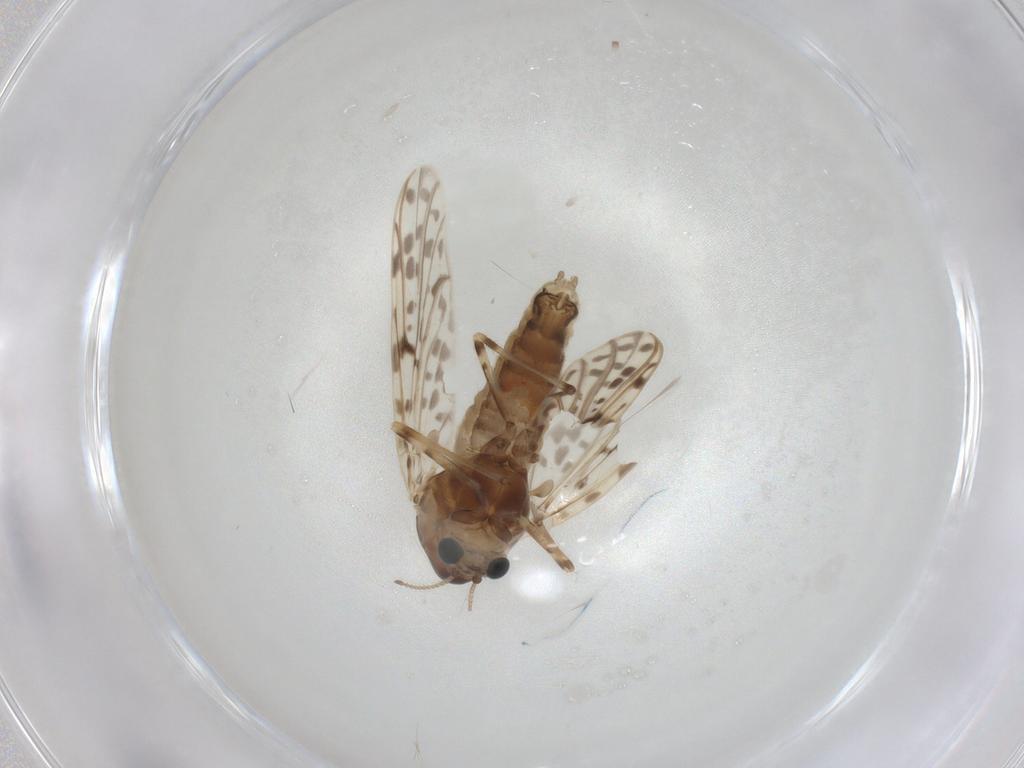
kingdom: Animalia
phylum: Arthropoda
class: Insecta
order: Diptera
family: Chironomidae
